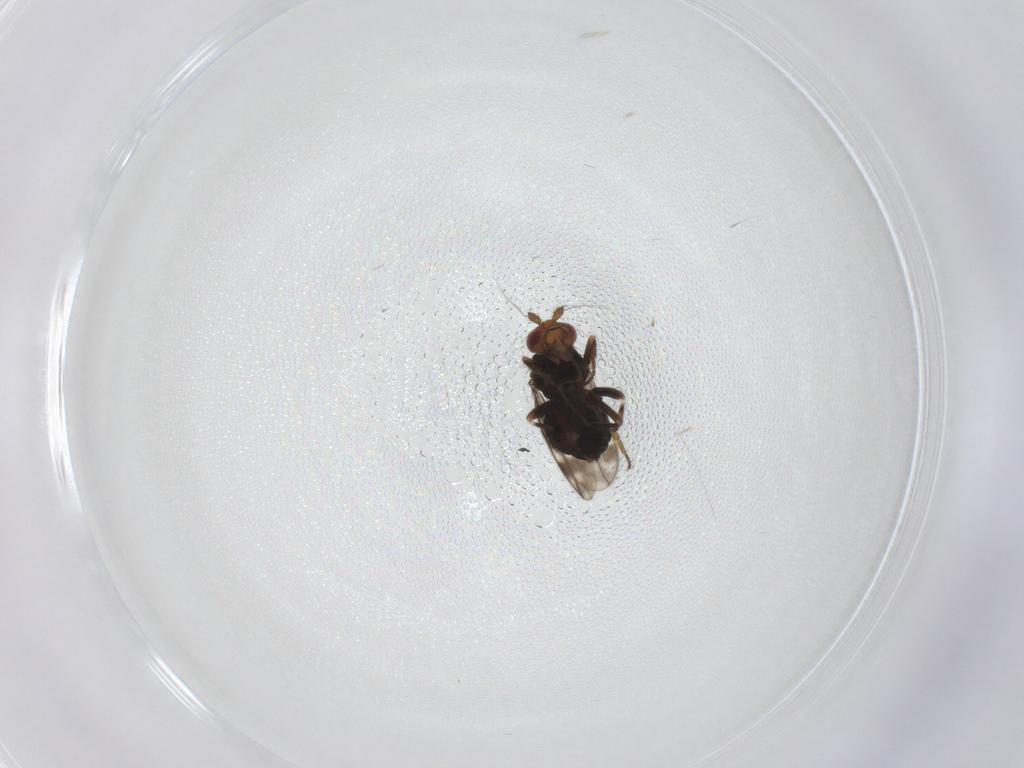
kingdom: Animalia
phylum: Arthropoda
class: Insecta
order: Diptera
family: Sphaeroceridae
